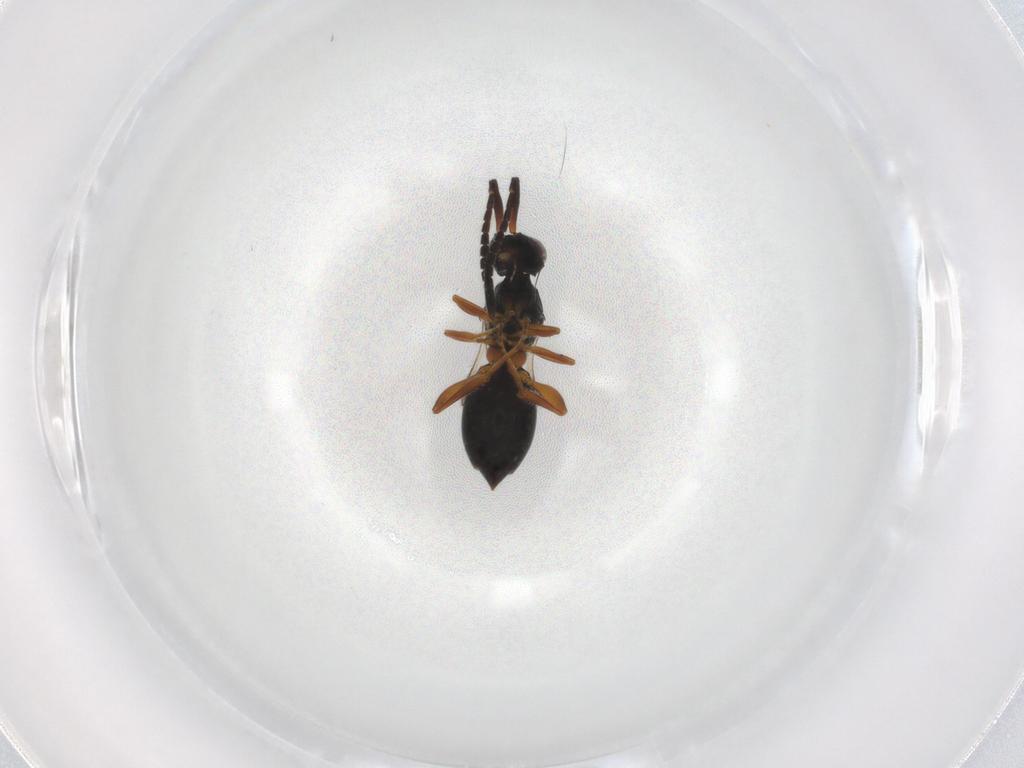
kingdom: Animalia
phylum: Arthropoda
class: Insecta
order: Hymenoptera
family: Megaspilidae
